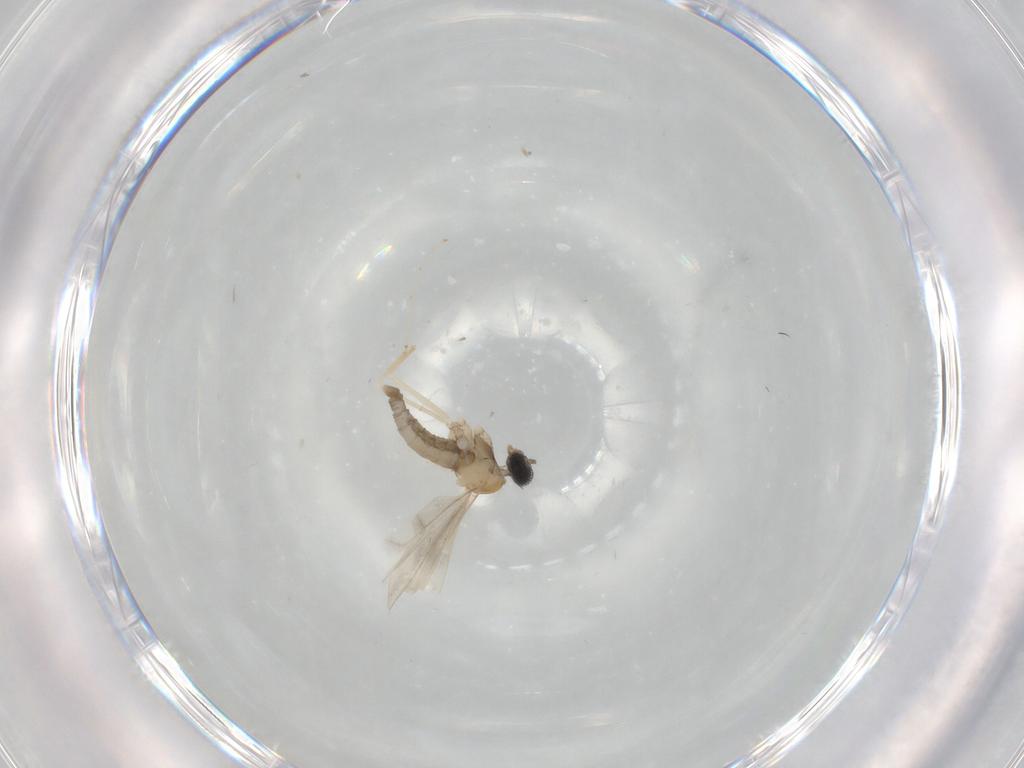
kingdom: Animalia
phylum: Arthropoda
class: Insecta
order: Diptera
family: Cecidomyiidae
